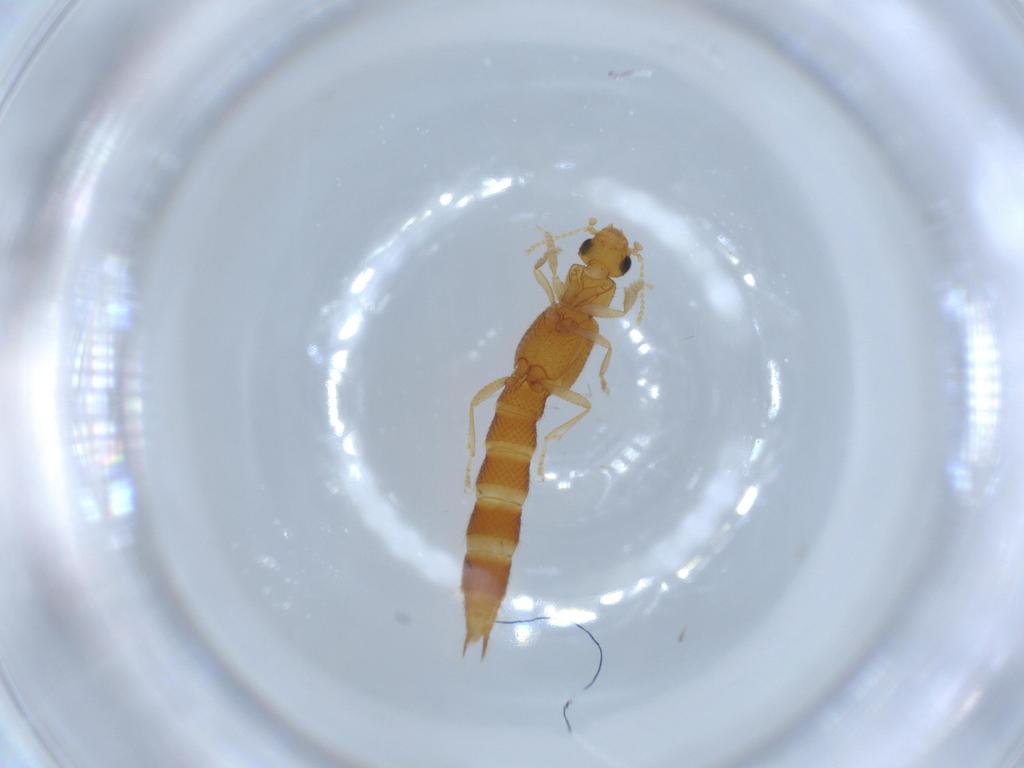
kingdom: Animalia
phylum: Arthropoda
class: Insecta
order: Coleoptera
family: Staphylinidae
